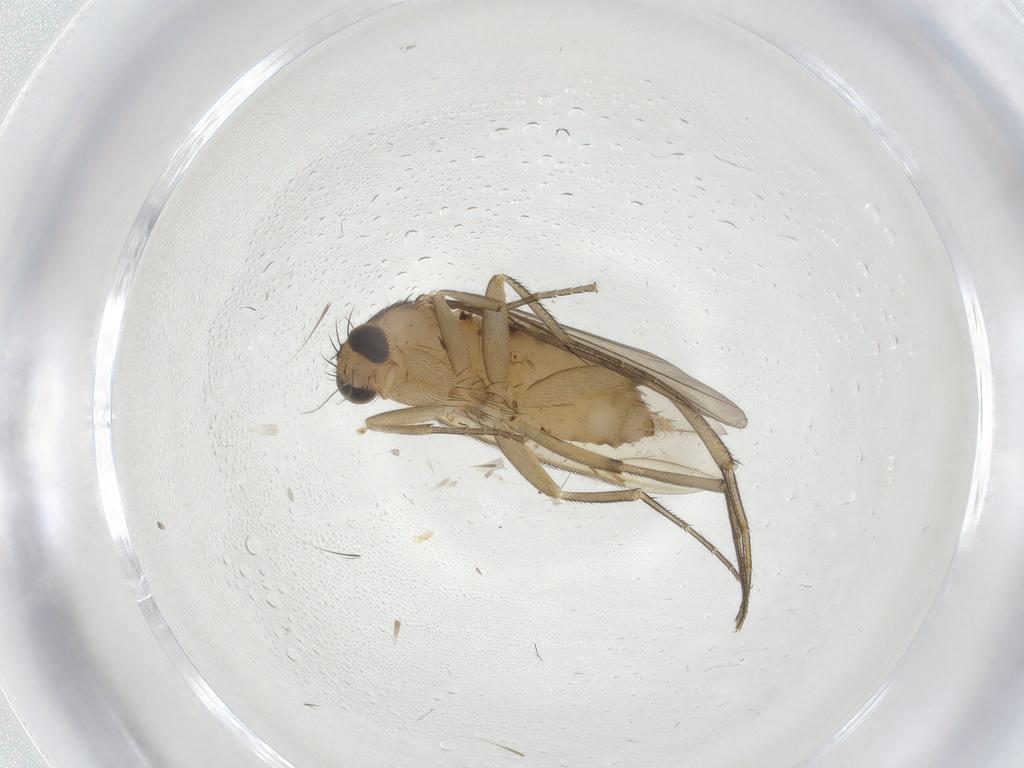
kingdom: Animalia
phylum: Arthropoda
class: Insecta
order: Diptera
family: Phoridae
